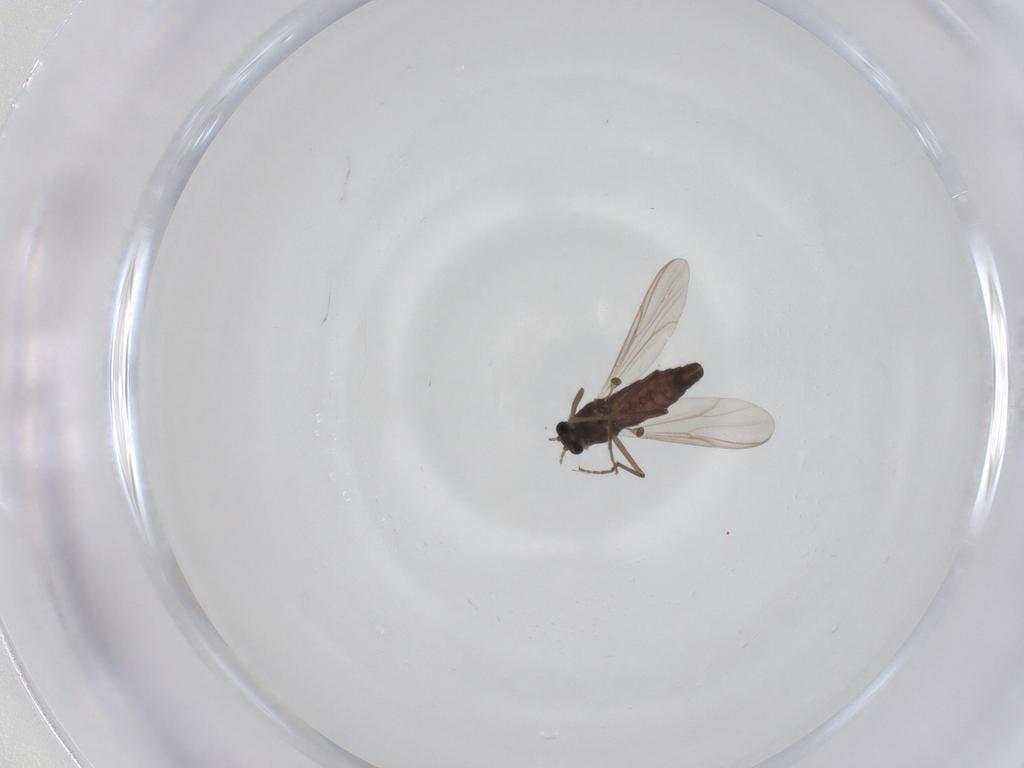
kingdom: Animalia
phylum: Arthropoda
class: Insecta
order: Diptera
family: Chironomidae
